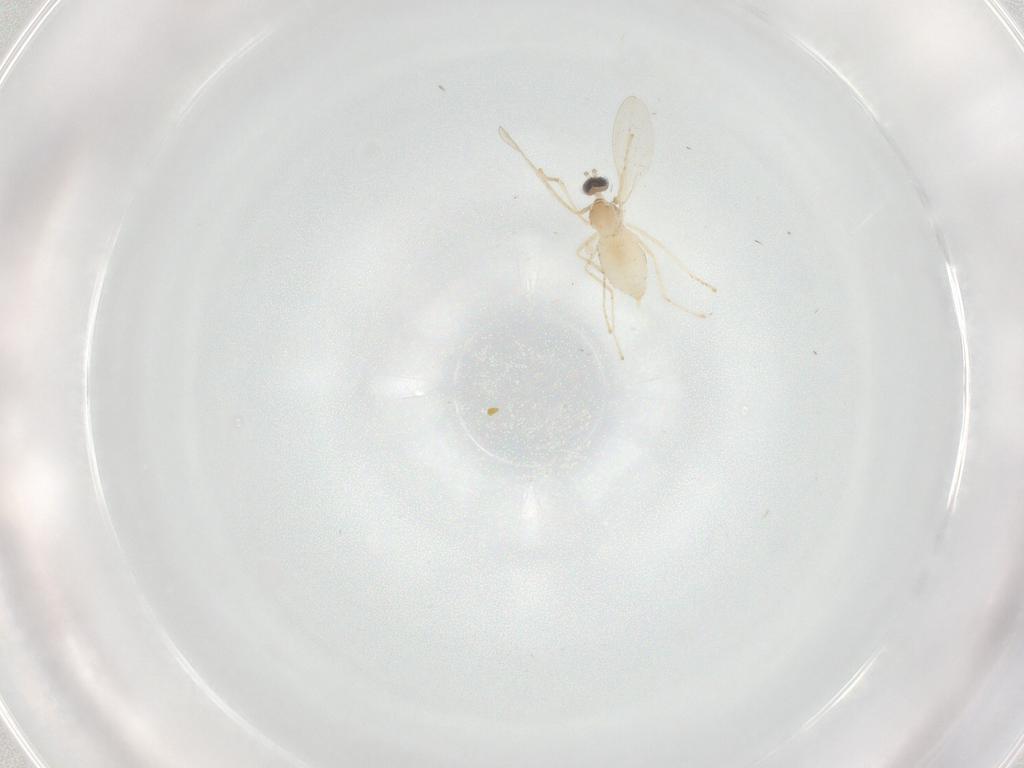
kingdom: Animalia
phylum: Arthropoda
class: Insecta
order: Diptera
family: Cecidomyiidae
